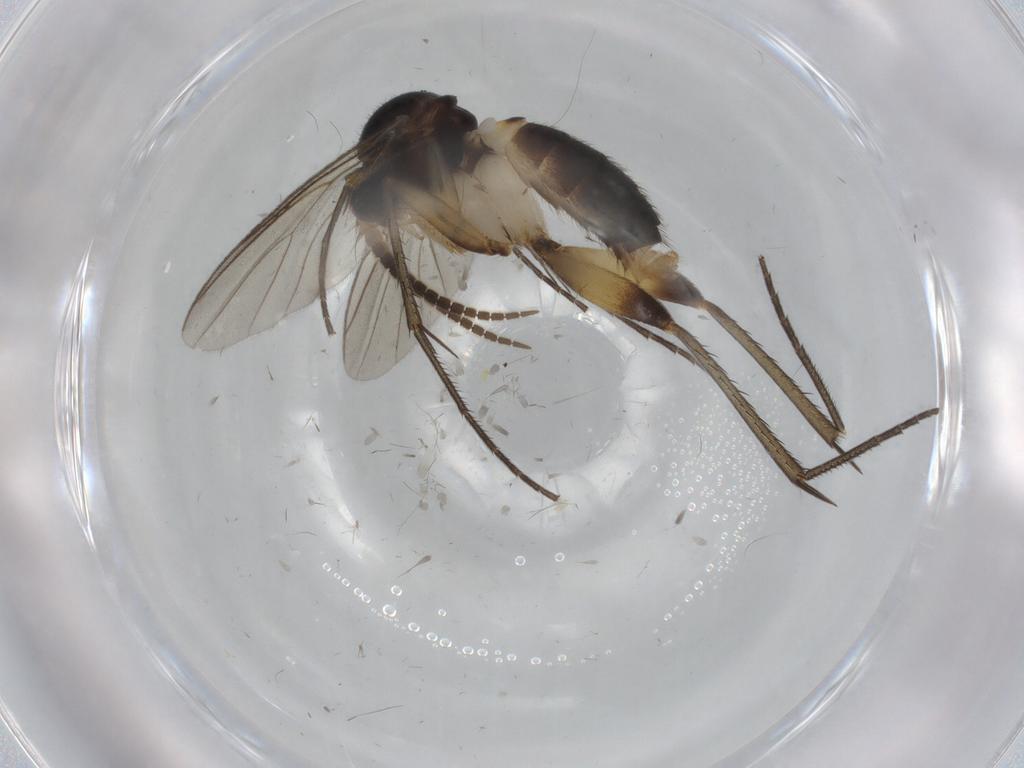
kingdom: Animalia
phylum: Arthropoda
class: Insecta
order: Diptera
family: Mycetophilidae
